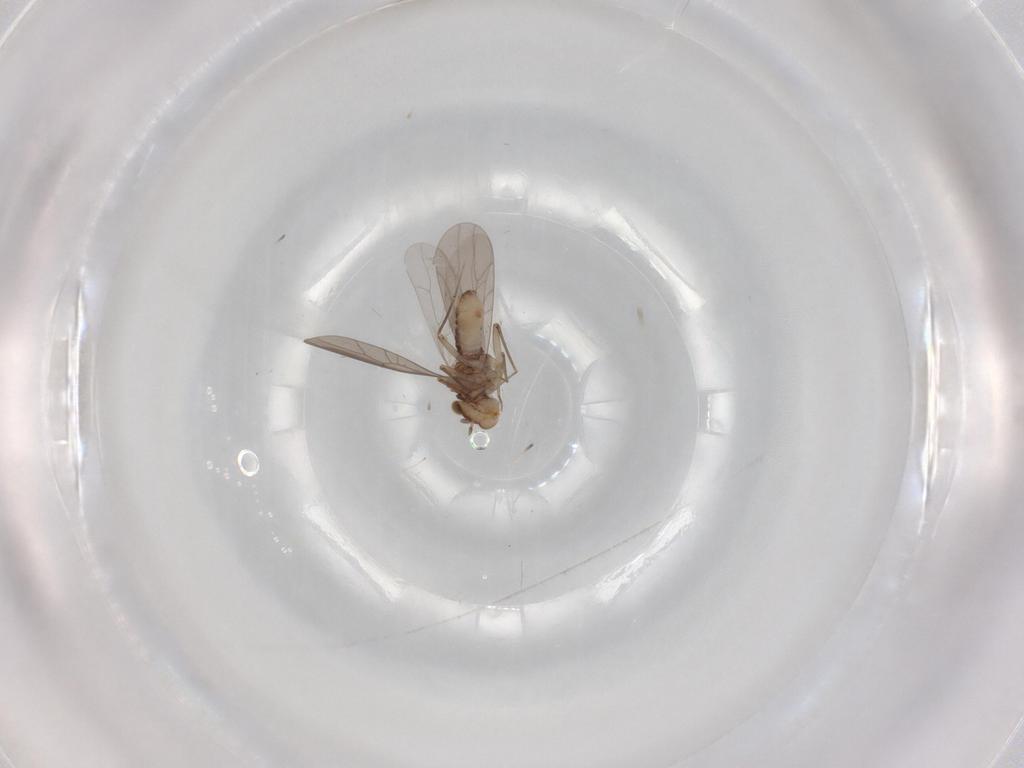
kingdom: Animalia
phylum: Arthropoda
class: Insecta
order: Psocodea
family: Lepidopsocidae
